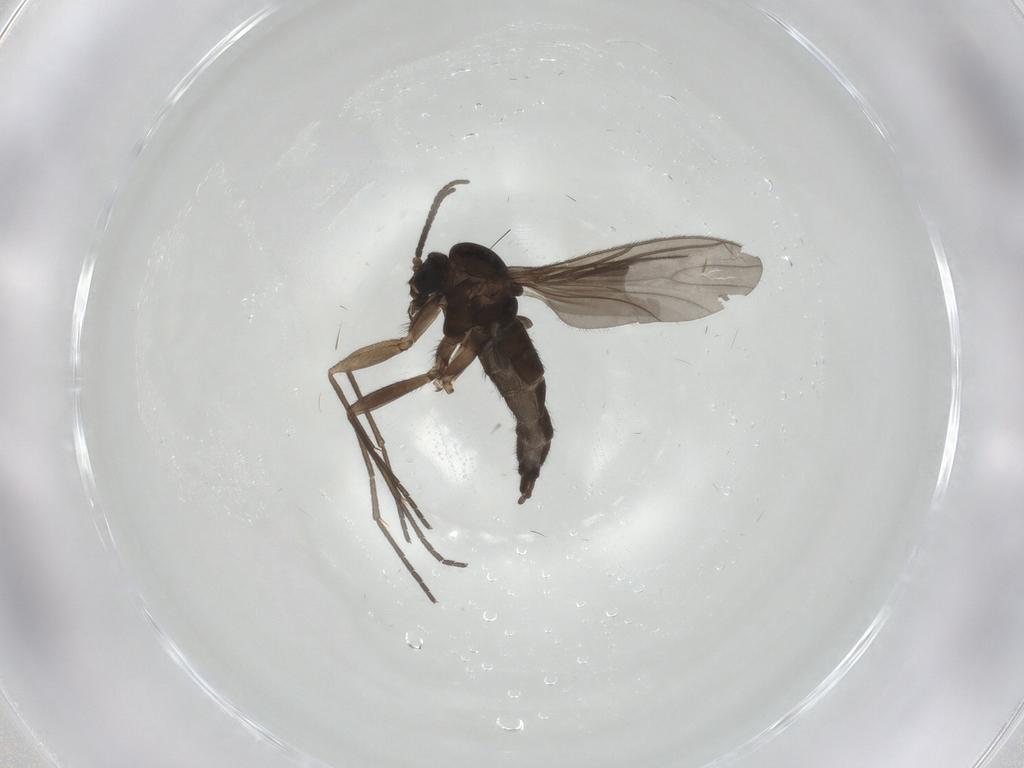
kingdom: Animalia
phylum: Arthropoda
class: Insecta
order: Diptera
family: Sciaridae
